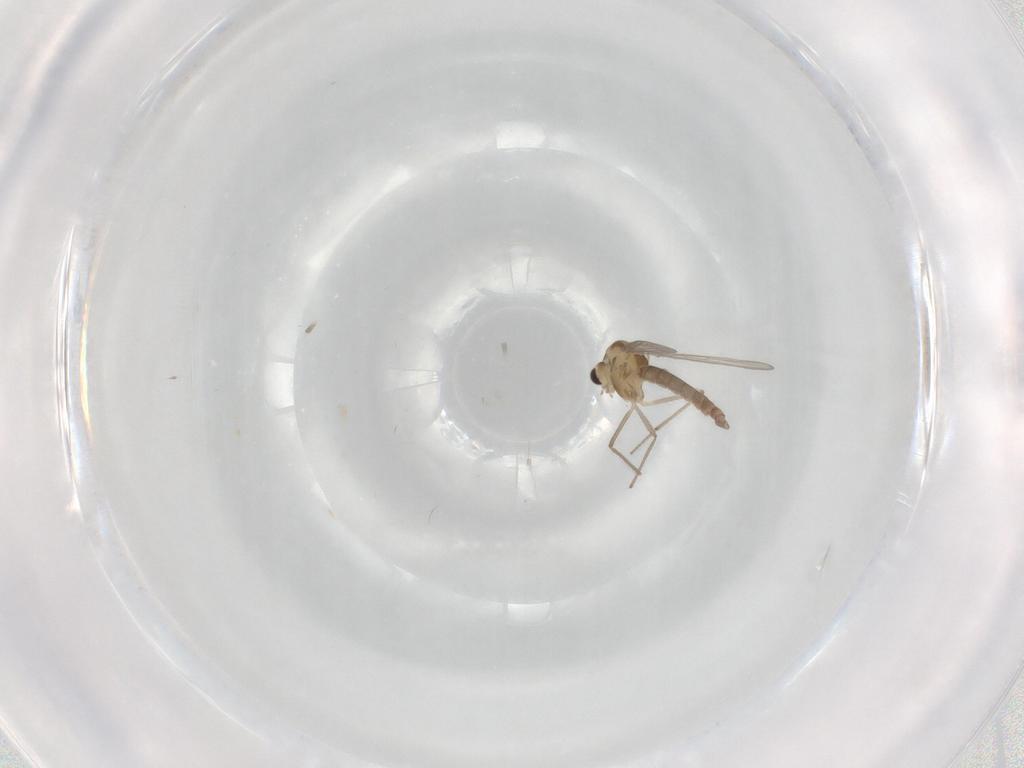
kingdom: Animalia
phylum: Arthropoda
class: Insecta
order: Diptera
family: Chironomidae
